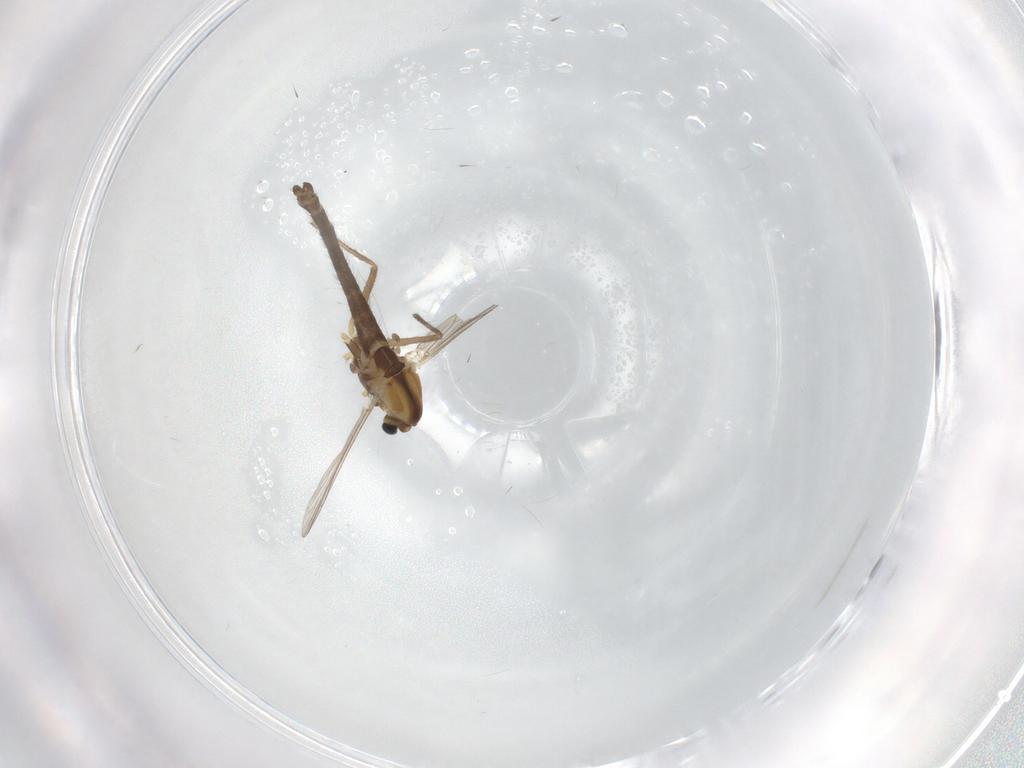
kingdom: Animalia
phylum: Arthropoda
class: Insecta
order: Diptera
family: Chironomidae
